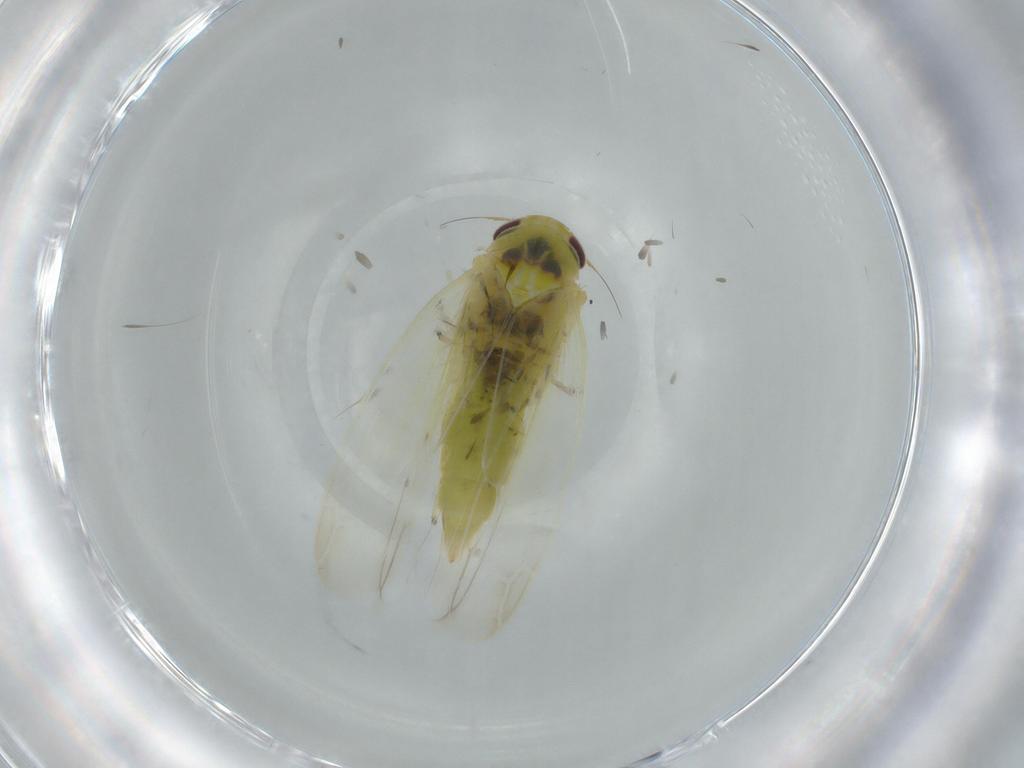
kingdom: Animalia
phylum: Arthropoda
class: Insecta
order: Hemiptera
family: Cicadellidae
